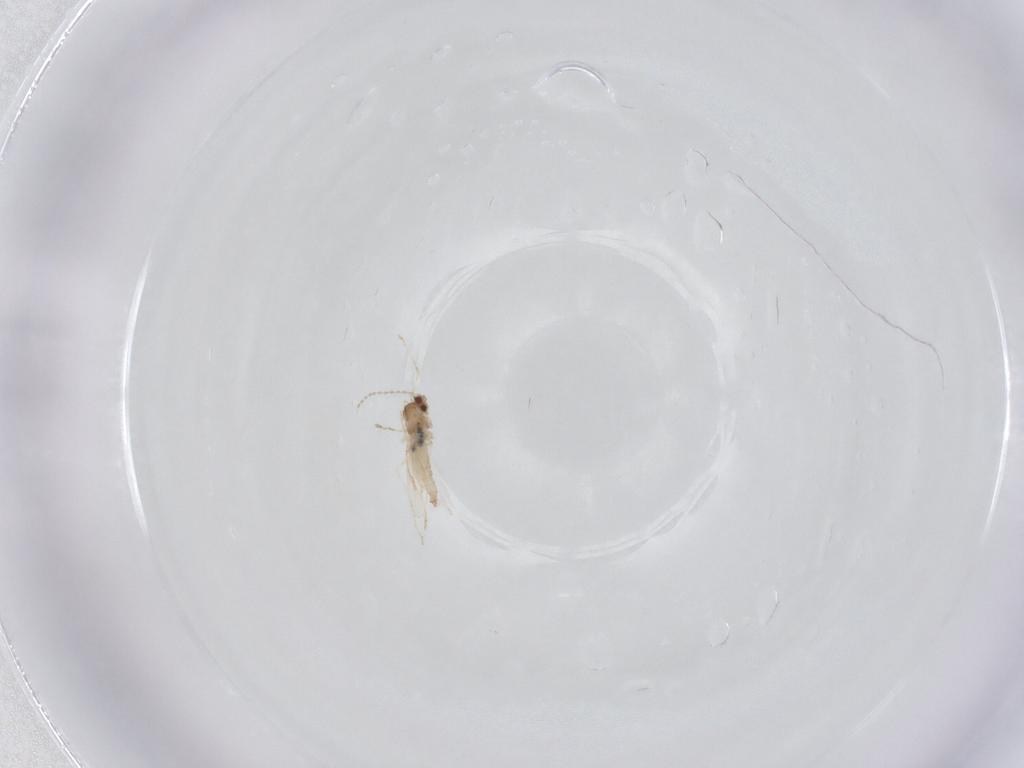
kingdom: Animalia
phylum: Arthropoda
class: Insecta
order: Diptera
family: Cecidomyiidae
